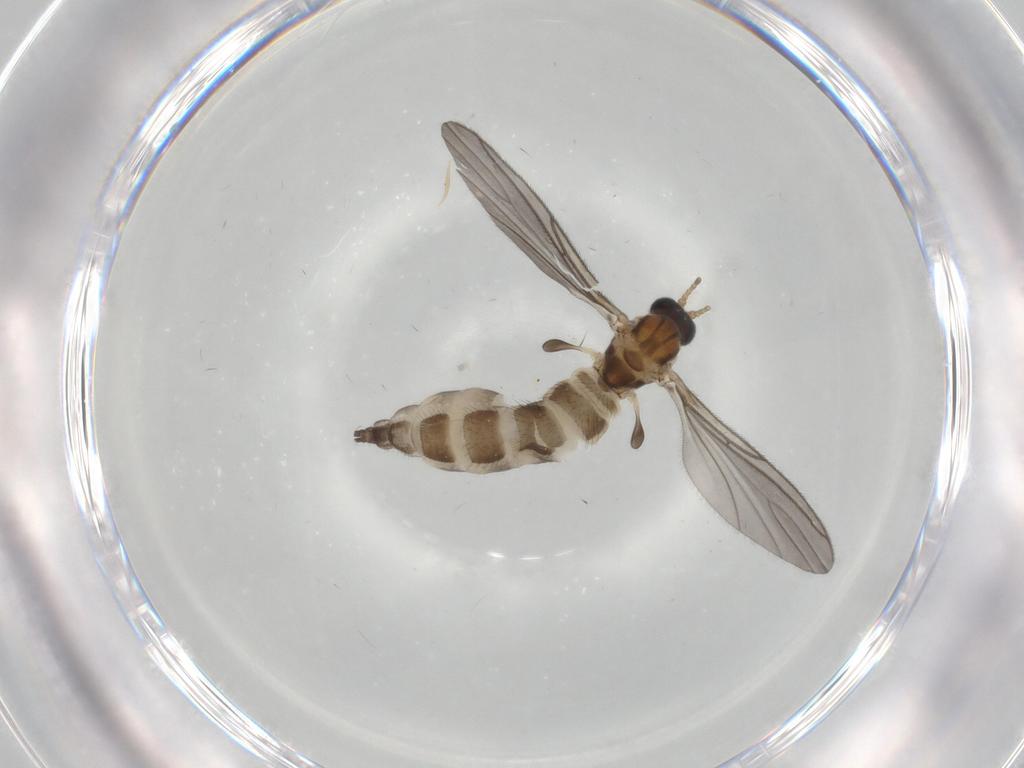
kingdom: Animalia
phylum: Arthropoda
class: Insecta
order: Diptera
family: Sciaridae
